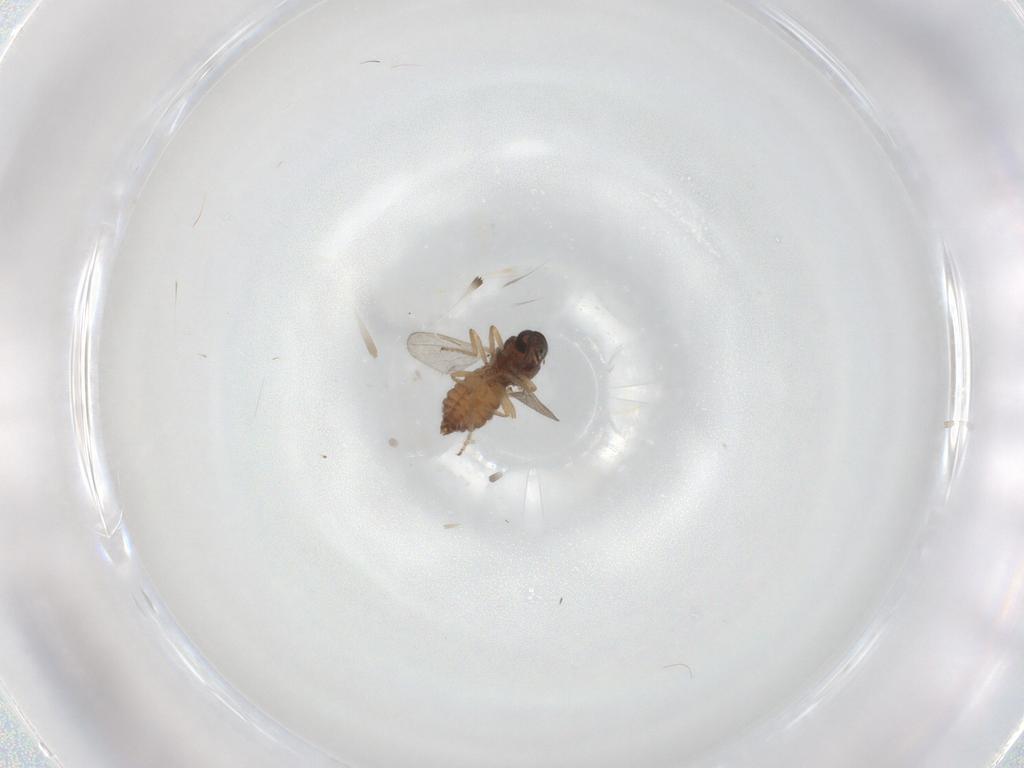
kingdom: Animalia
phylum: Arthropoda
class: Insecta
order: Diptera
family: Ceratopogonidae
